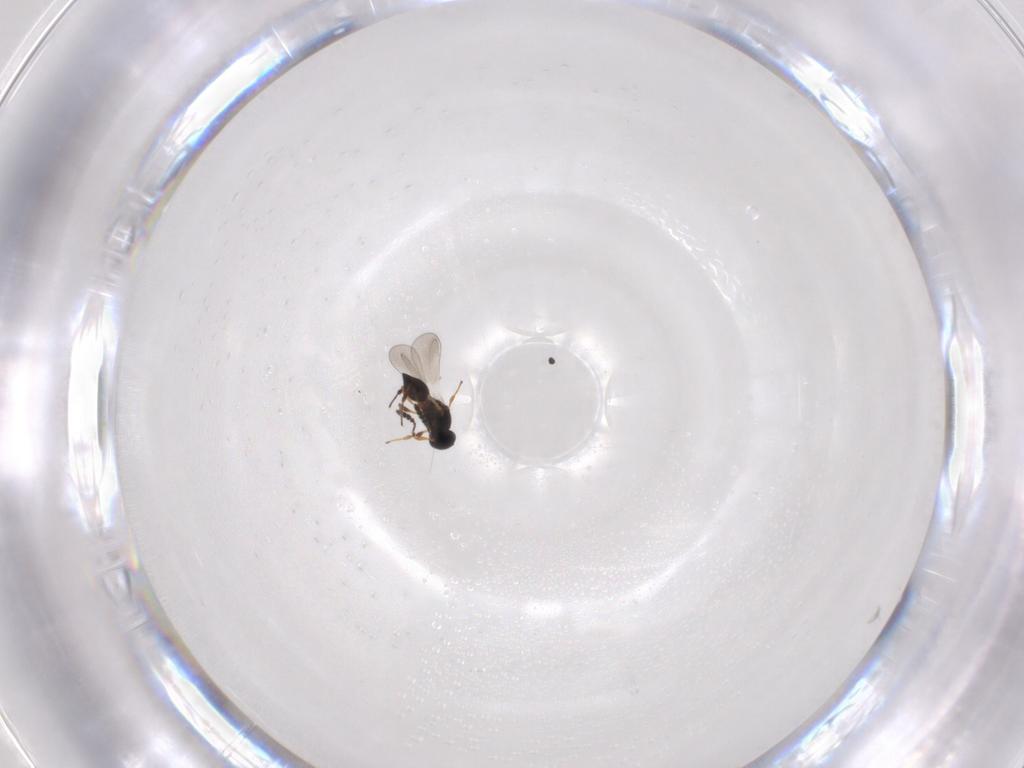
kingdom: Animalia
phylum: Arthropoda
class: Insecta
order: Hymenoptera
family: Platygastridae
